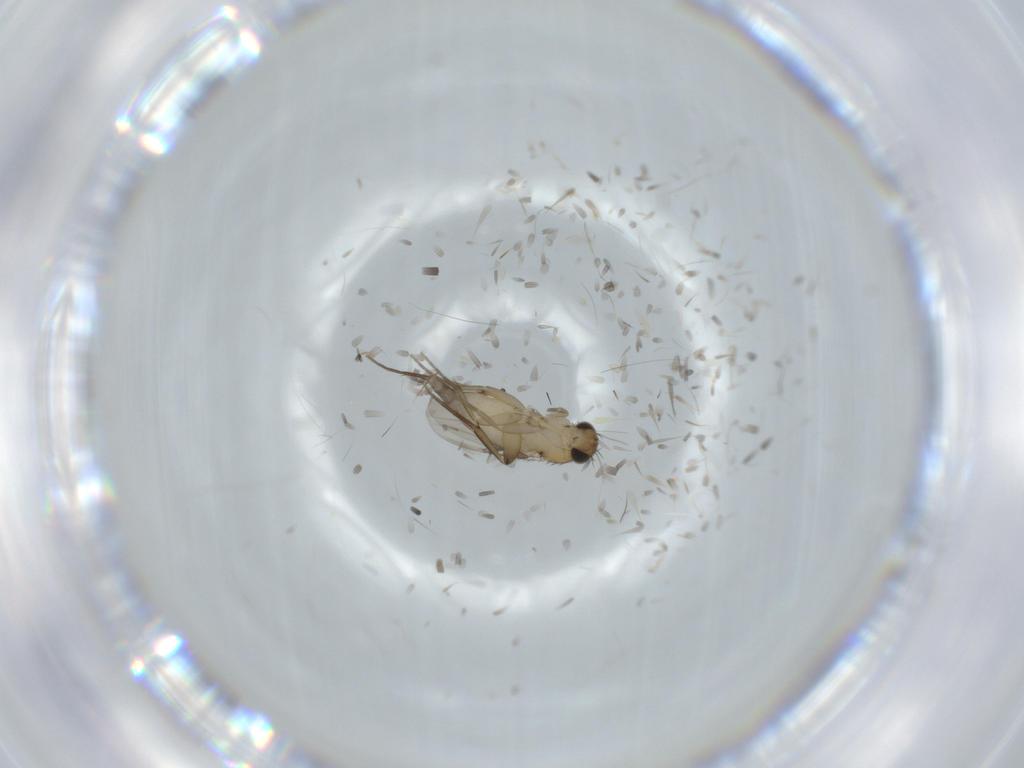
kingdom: Animalia
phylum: Arthropoda
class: Insecta
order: Diptera
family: Phoridae
